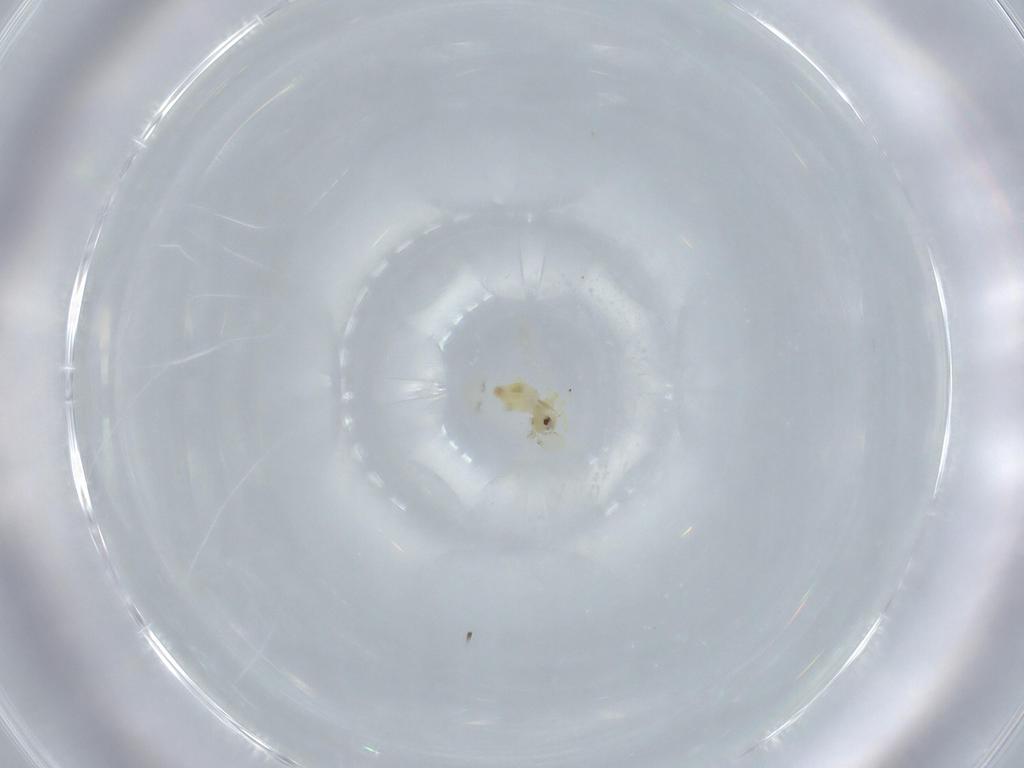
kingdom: Animalia
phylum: Arthropoda
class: Insecta
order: Hemiptera
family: Aleyrodidae
